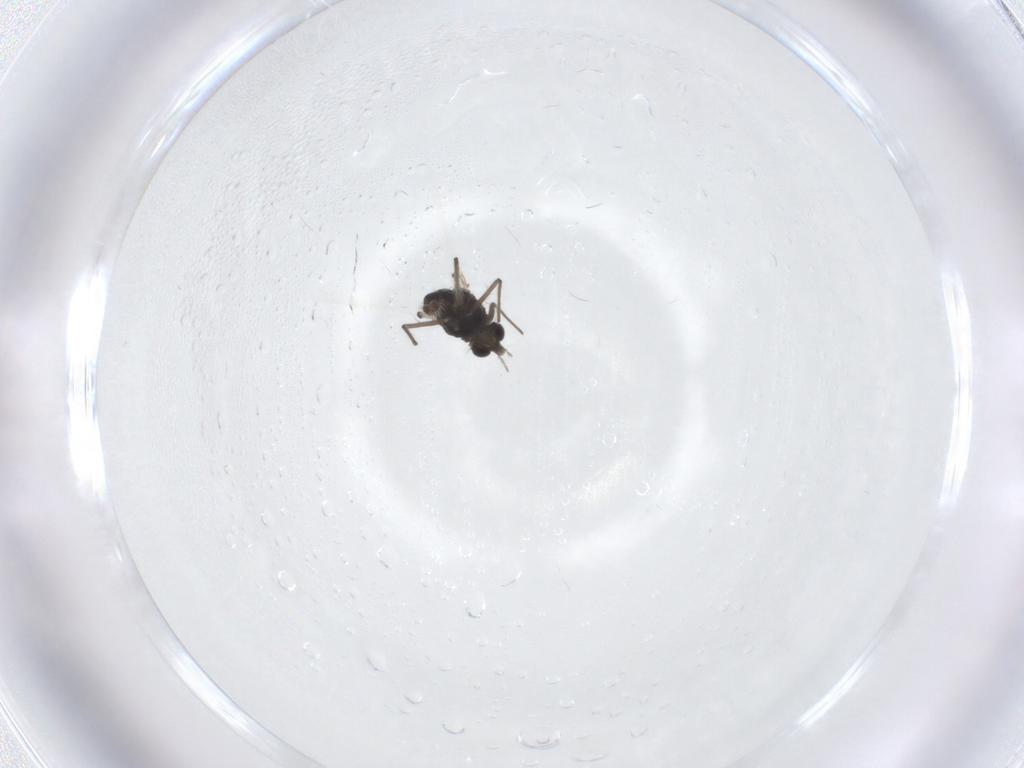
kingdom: Animalia
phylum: Arthropoda
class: Insecta
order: Diptera
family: Chironomidae
